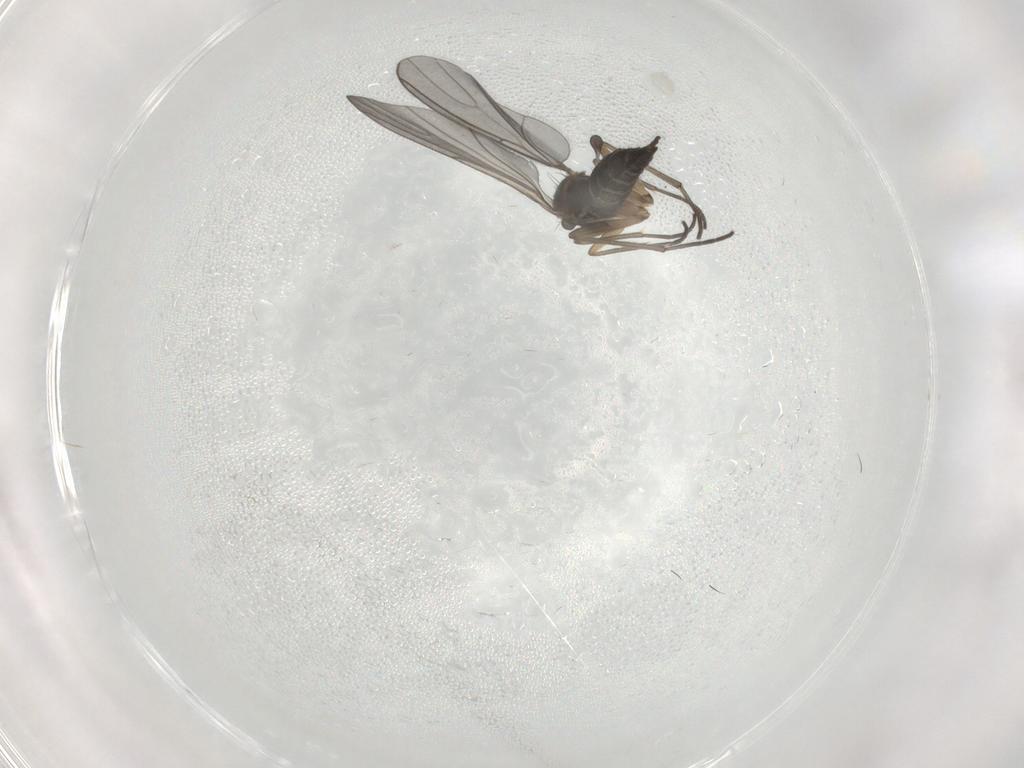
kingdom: Animalia
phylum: Arthropoda
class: Insecta
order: Diptera
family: Sciaridae
